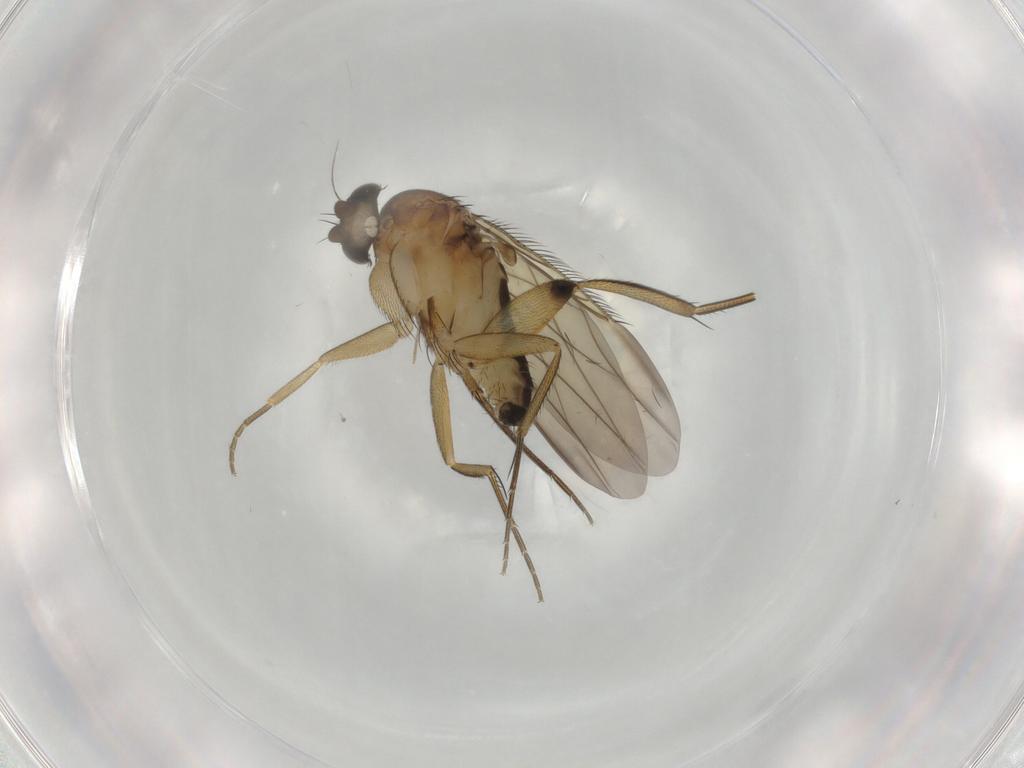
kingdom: Animalia
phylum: Arthropoda
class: Insecta
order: Diptera
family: Phoridae
